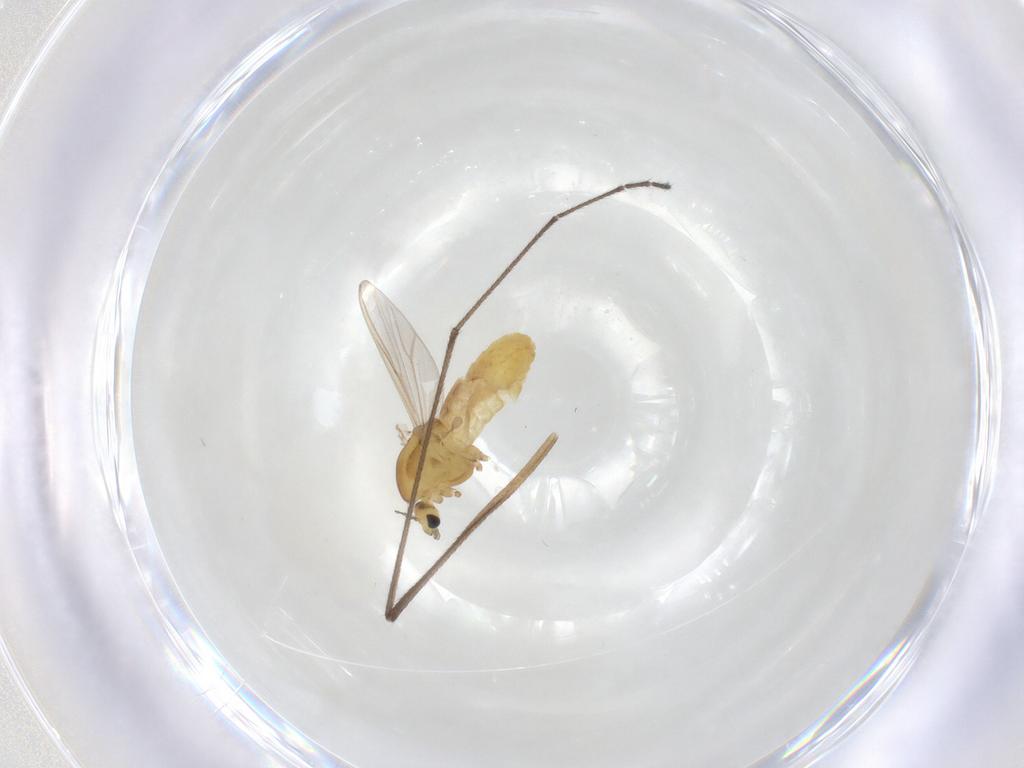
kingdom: Animalia
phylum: Arthropoda
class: Insecta
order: Diptera
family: Chironomidae
